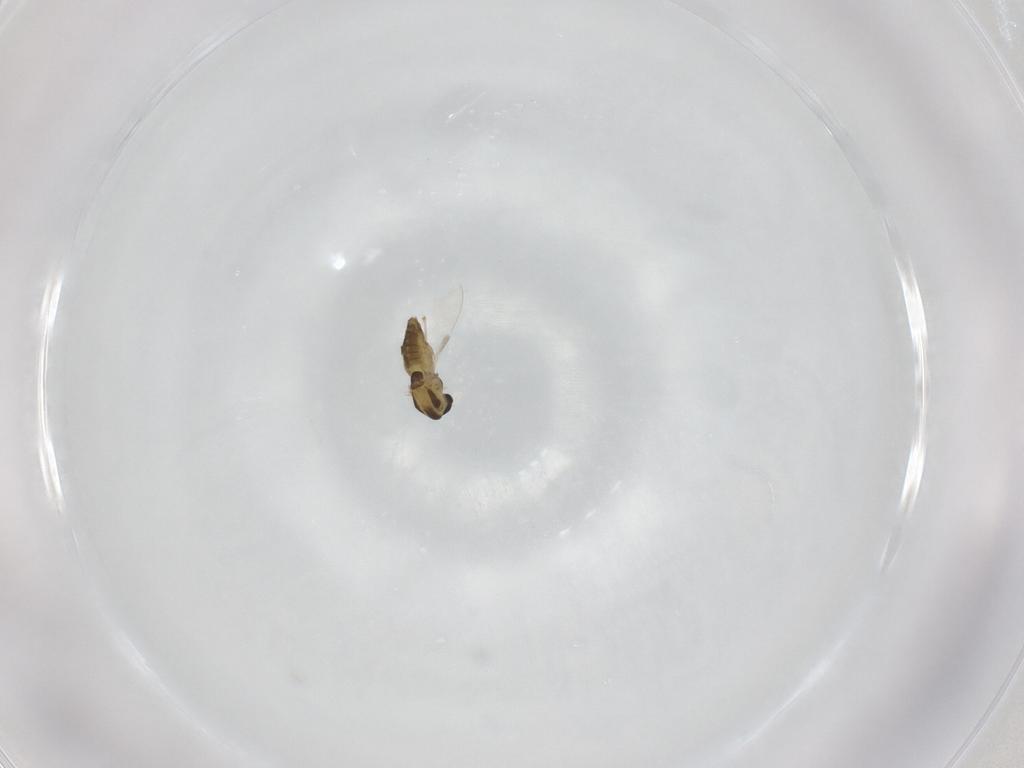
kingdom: Animalia
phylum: Arthropoda
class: Insecta
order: Diptera
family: Chironomidae
